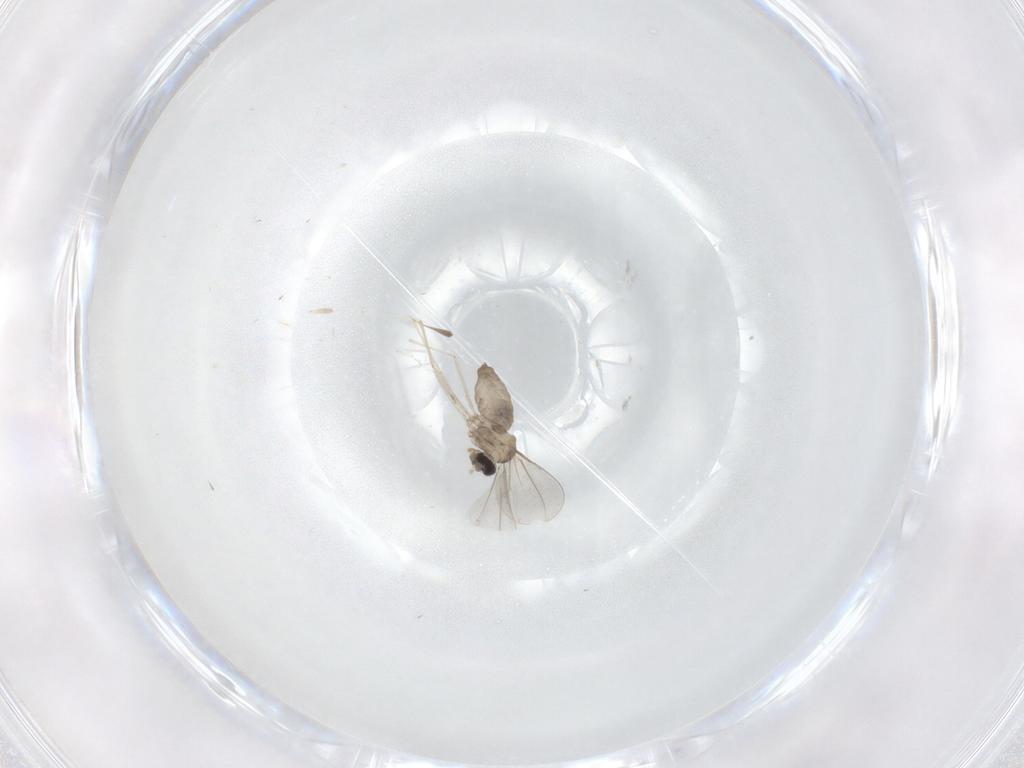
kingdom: Animalia
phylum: Arthropoda
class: Insecta
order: Diptera
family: Cecidomyiidae
